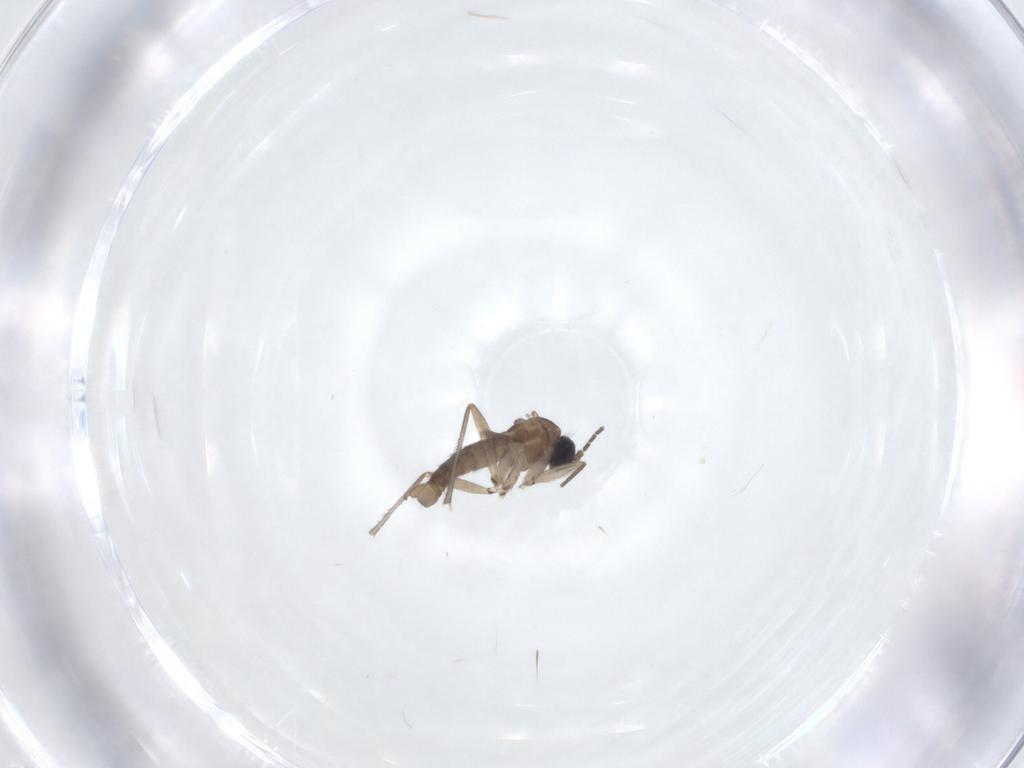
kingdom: Animalia
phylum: Arthropoda
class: Insecta
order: Diptera
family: Sciaridae
